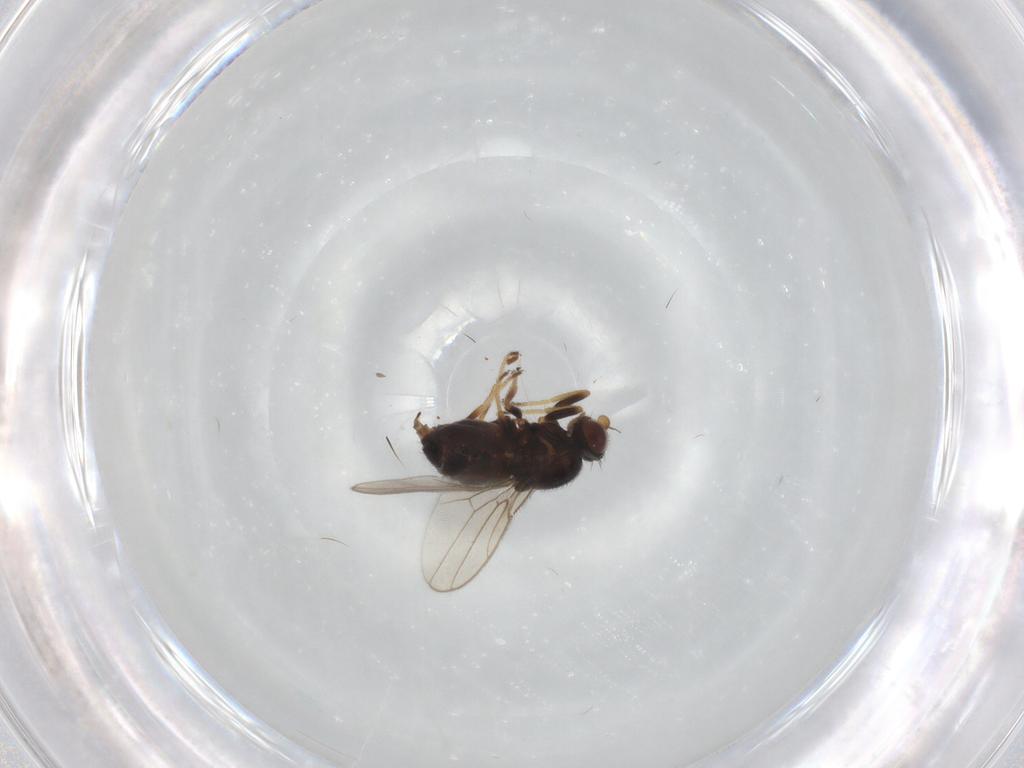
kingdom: Animalia
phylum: Arthropoda
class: Insecta
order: Diptera
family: Chloropidae
